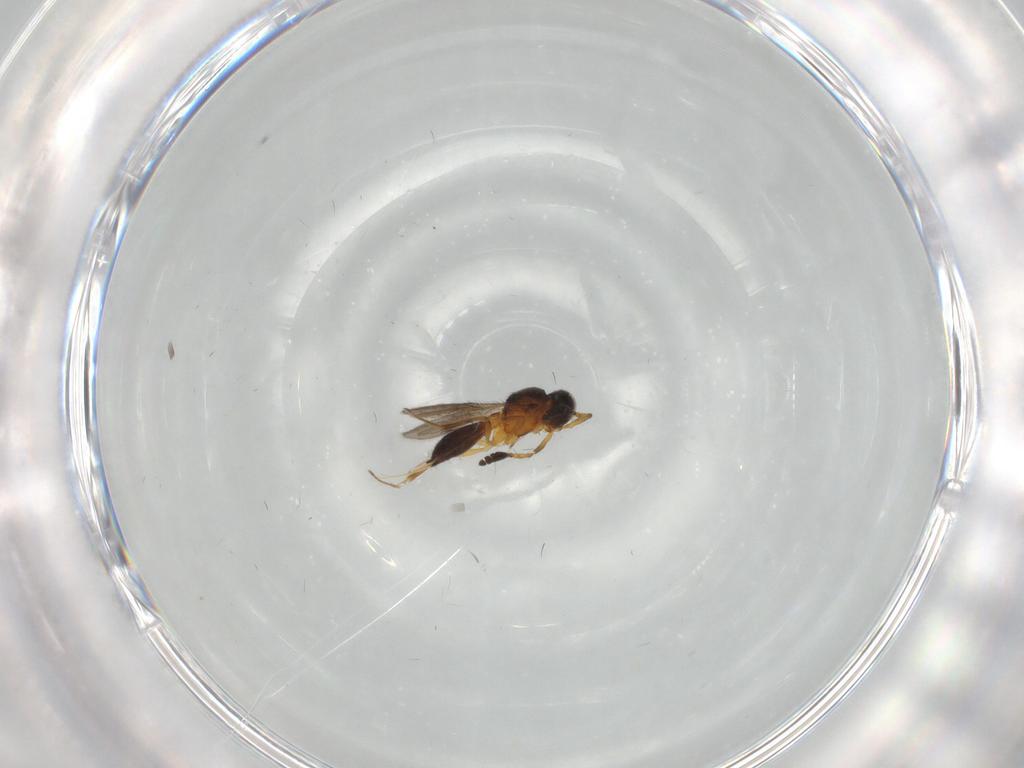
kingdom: Animalia
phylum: Arthropoda
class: Insecta
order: Hymenoptera
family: Scelionidae
